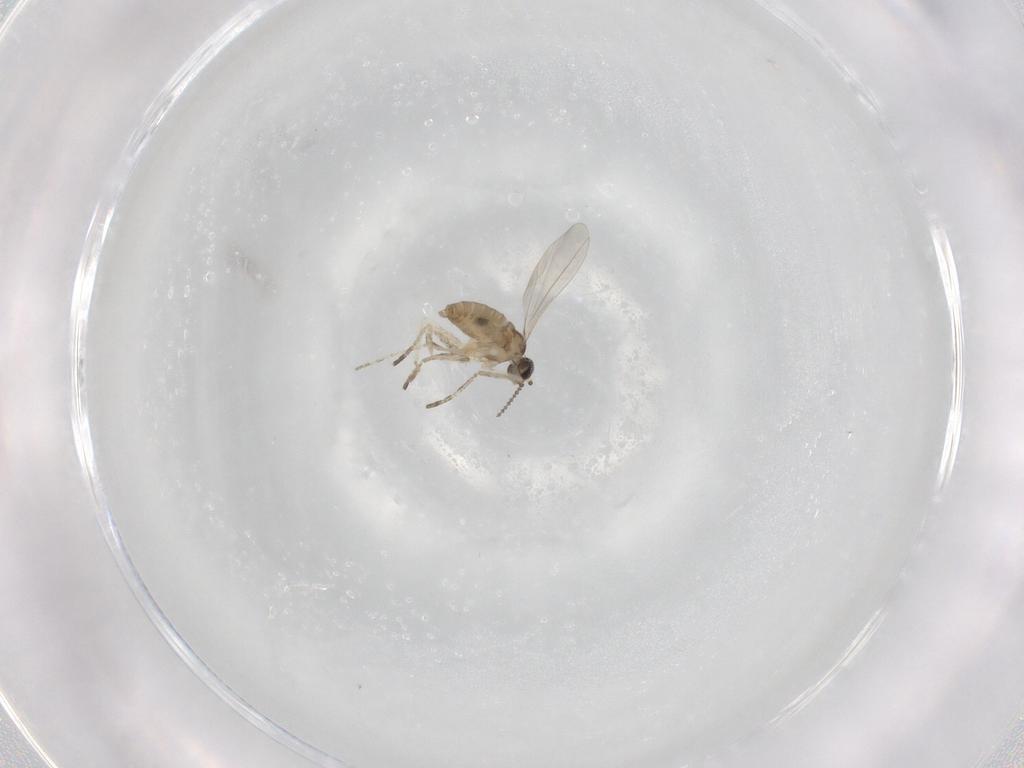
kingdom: Animalia
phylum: Arthropoda
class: Insecta
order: Diptera
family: Cecidomyiidae
